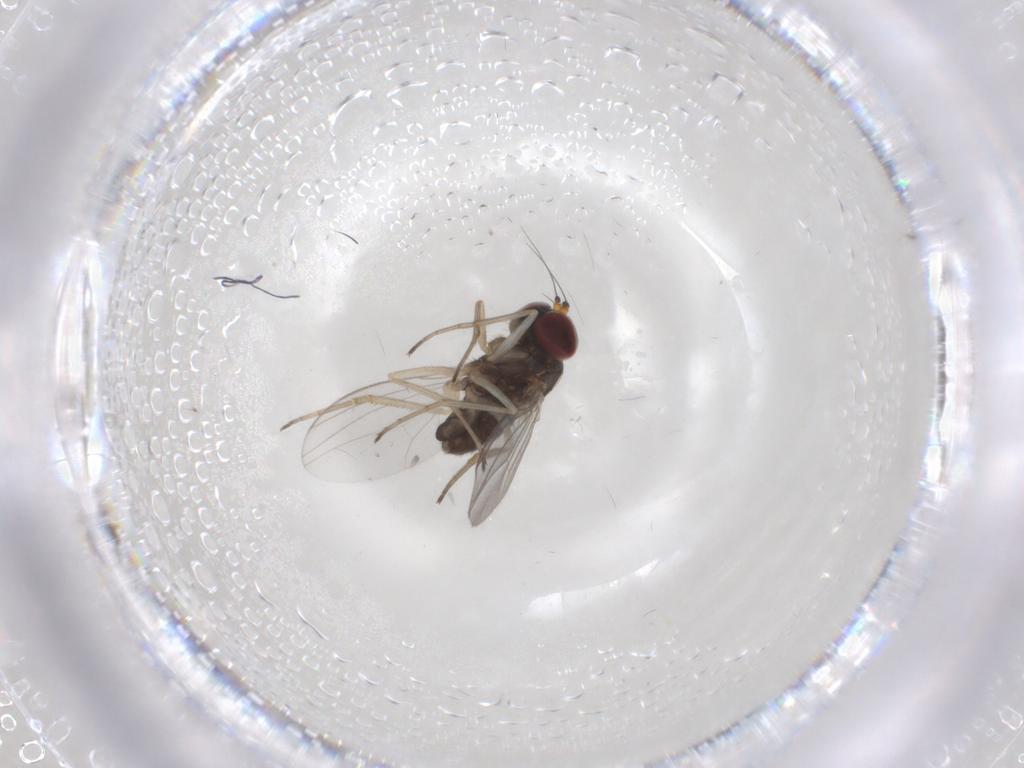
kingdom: Animalia
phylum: Arthropoda
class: Insecta
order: Diptera
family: Dolichopodidae
